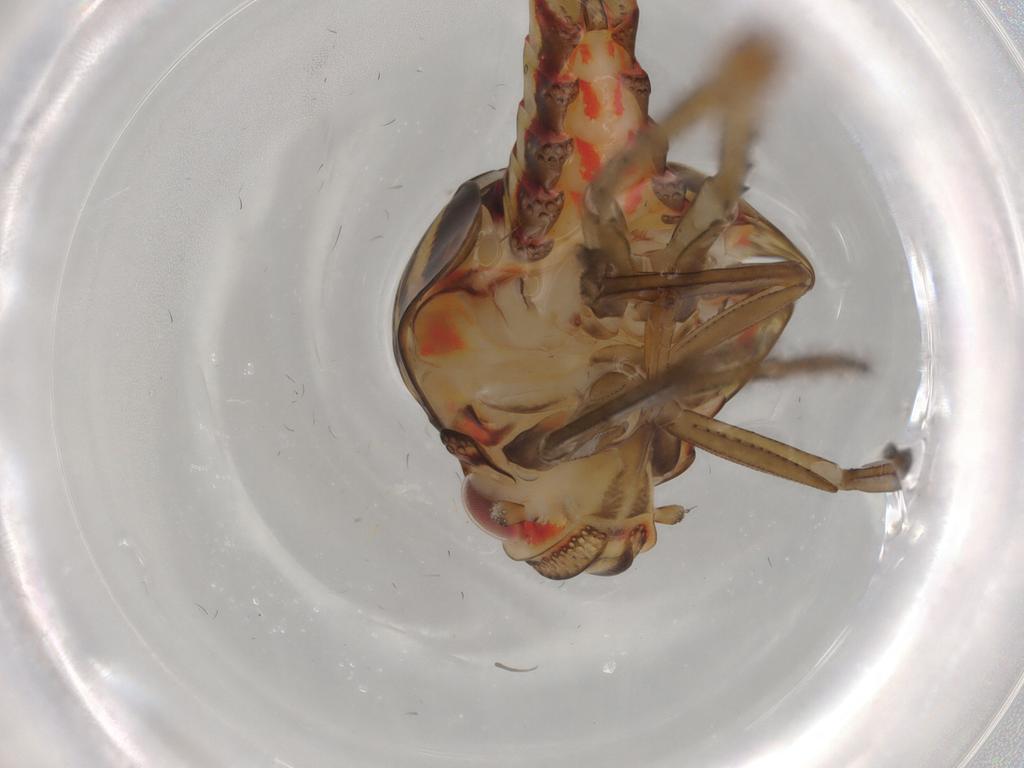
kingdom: Animalia
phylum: Arthropoda
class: Insecta
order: Hemiptera
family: Nogodinidae
